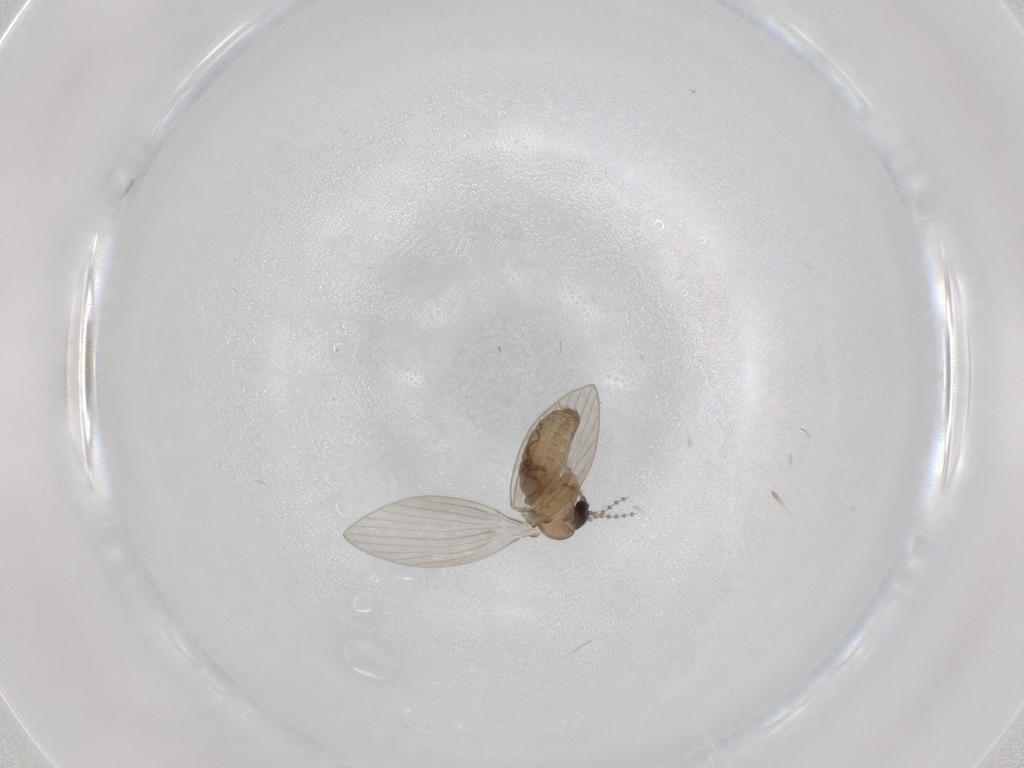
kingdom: Animalia
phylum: Arthropoda
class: Insecta
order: Diptera
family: Psychodidae
